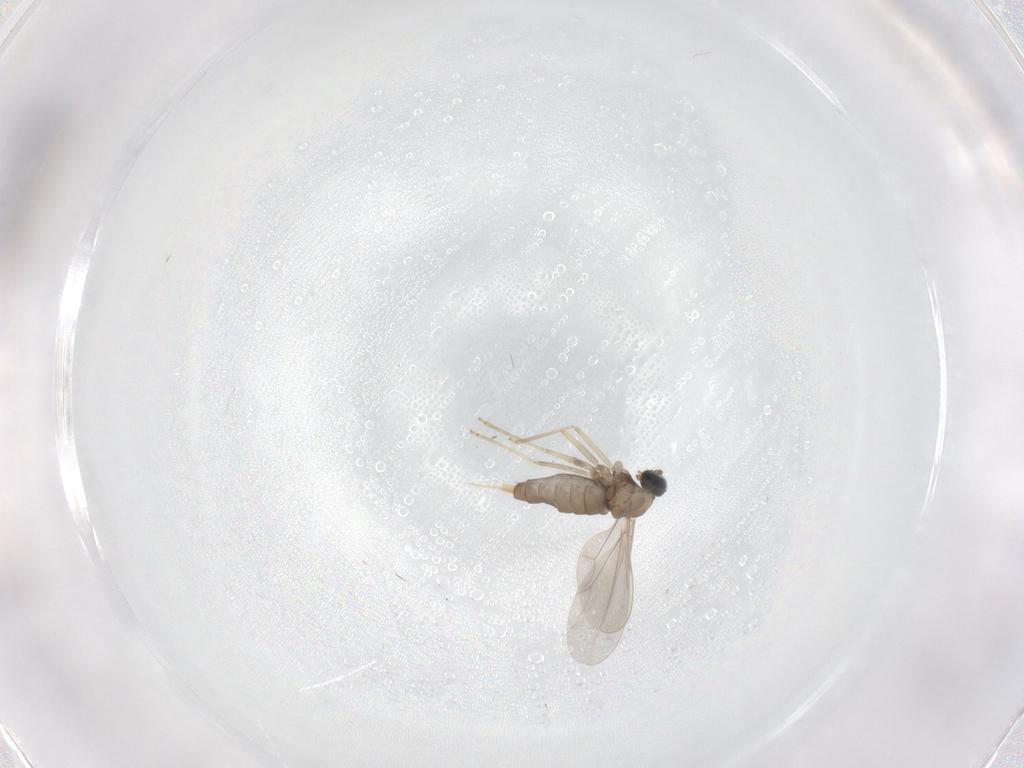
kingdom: Animalia
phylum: Arthropoda
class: Insecta
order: Diptera
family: Cecidomyiidae
